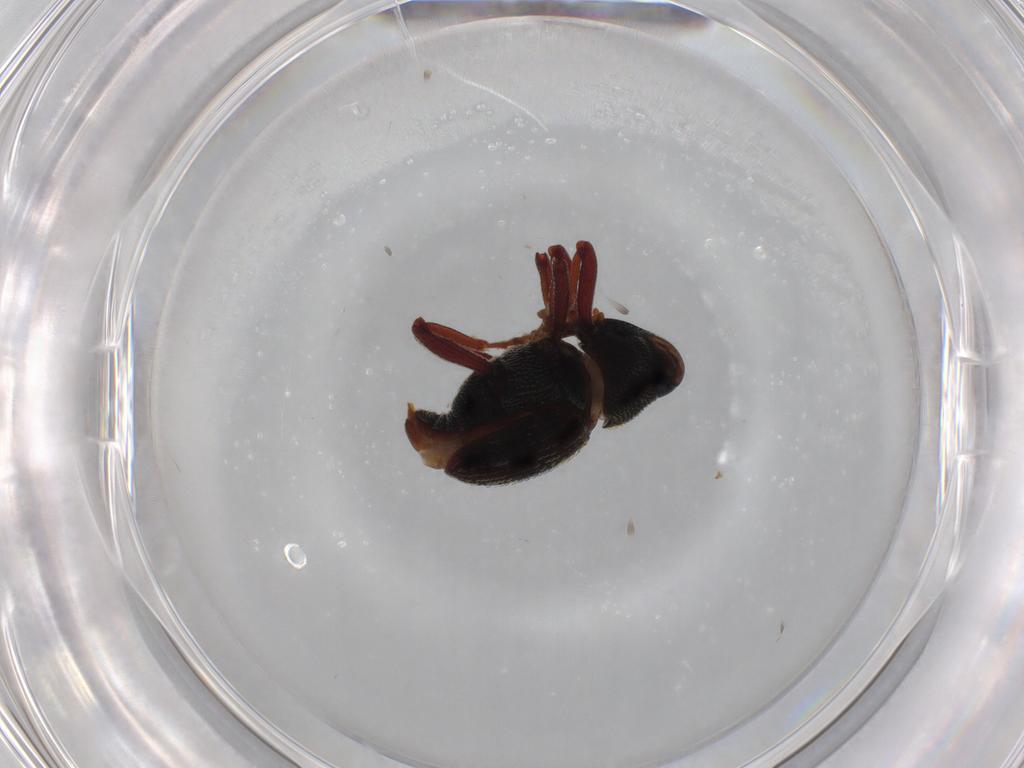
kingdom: Animalia
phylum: Arthropoda
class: Insecta
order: Coleoptera
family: Curculionidae
